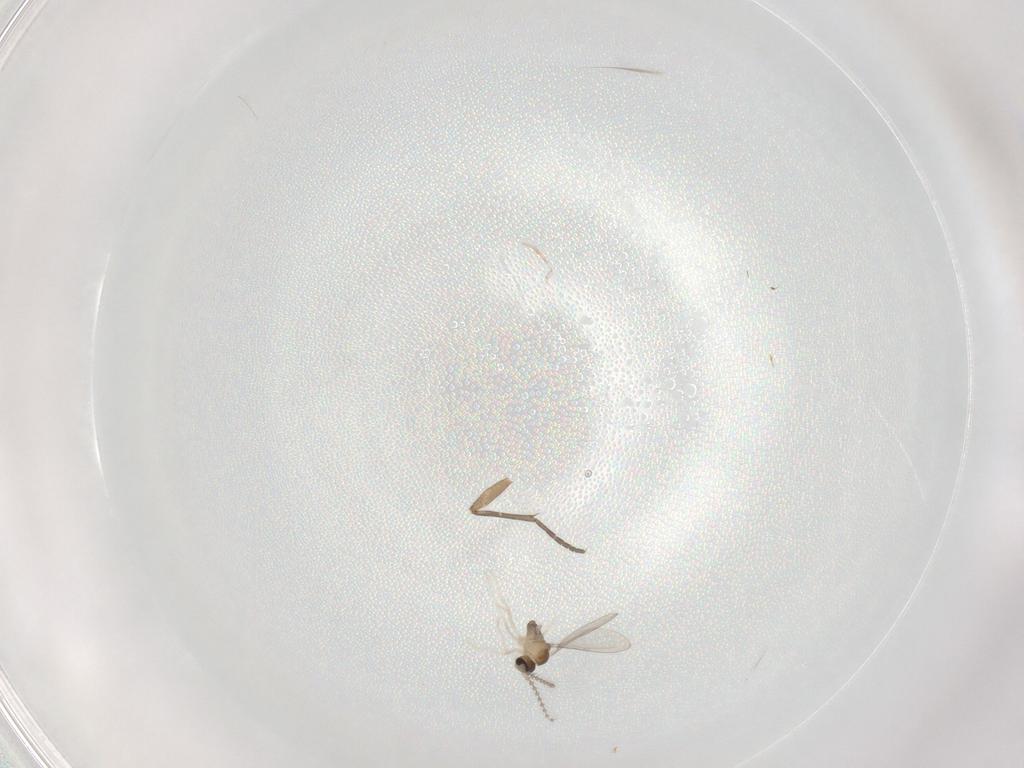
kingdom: Animalia
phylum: Arthropoda
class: Insecta
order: Diptera
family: Cecidomyiidae
